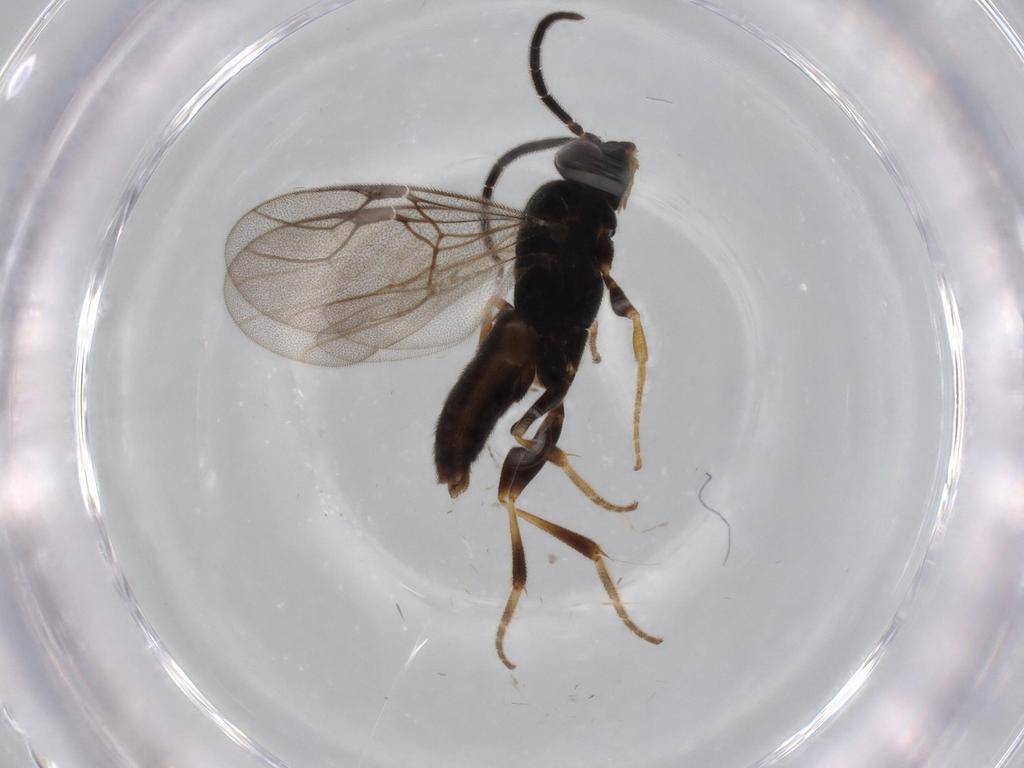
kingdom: Animalia
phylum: Arthropoda
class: Insecta
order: Hymenoptera
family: Dryinidae
